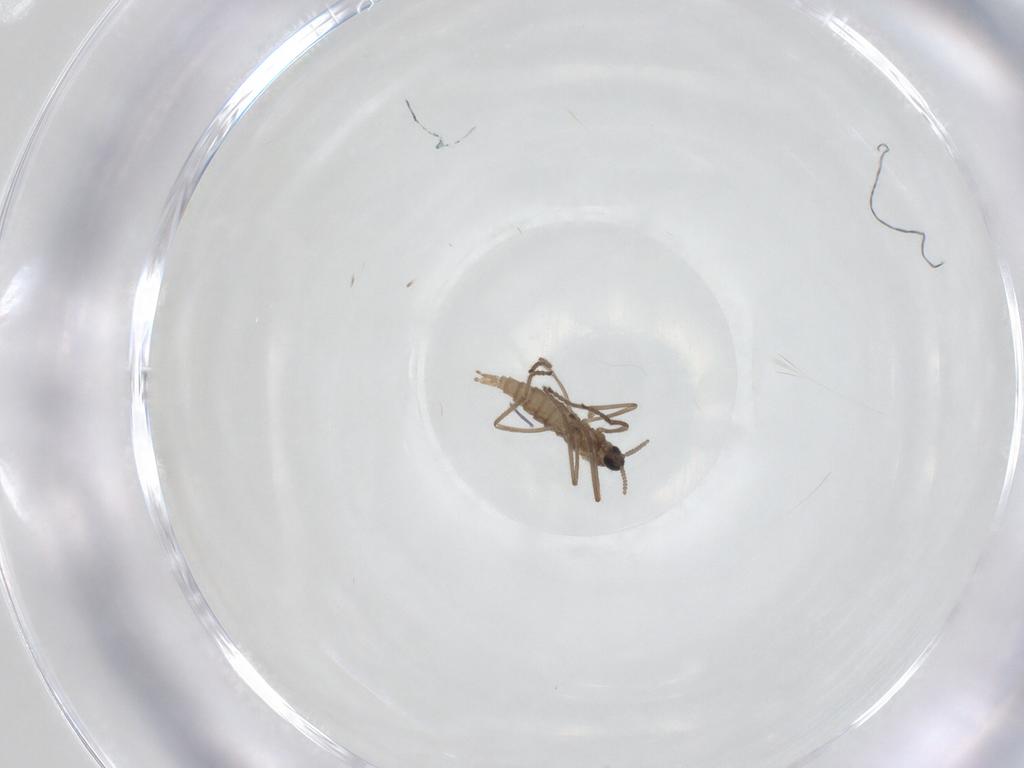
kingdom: Animalia
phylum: Arthropoda
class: Insecta
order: Diptera
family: Cecidomyiidae
